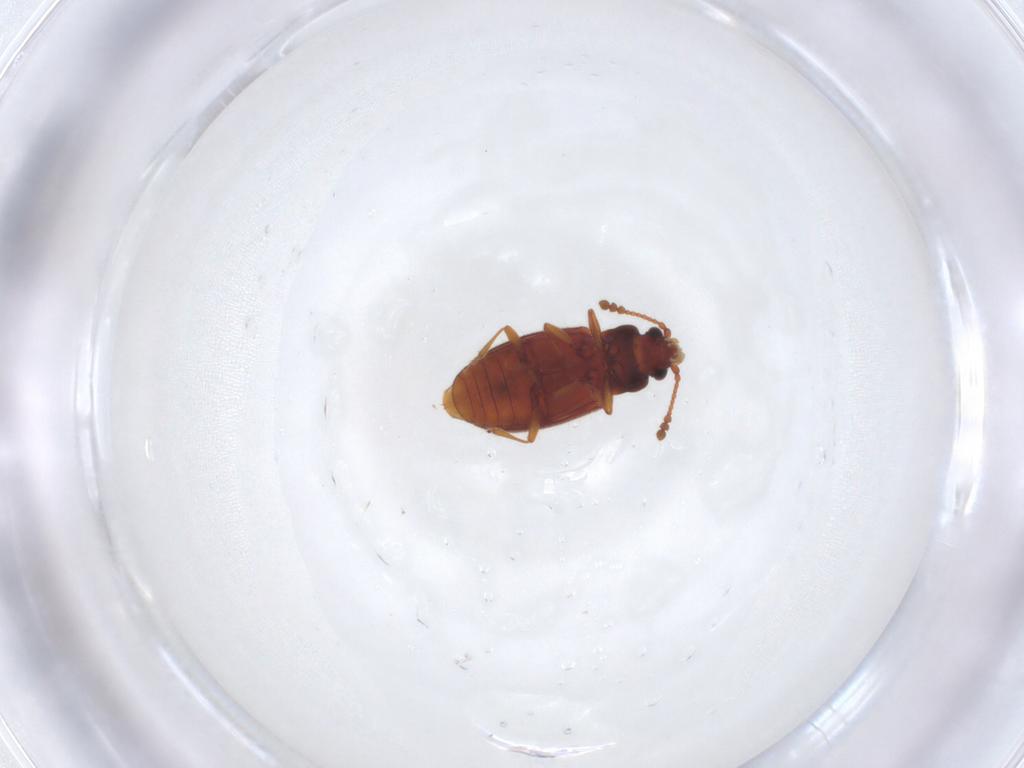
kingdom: Animalia
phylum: Arthropoda
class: Insecta
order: Coleoptera
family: Cryptophagidae
